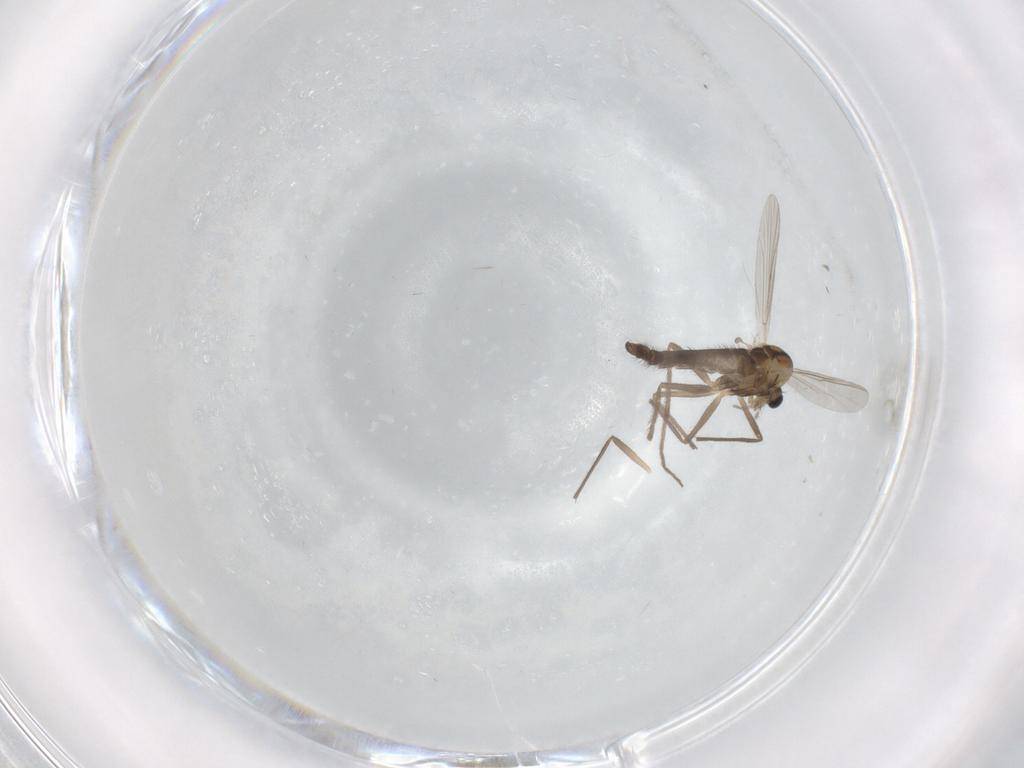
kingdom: Animalia
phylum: Arthropoda
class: Insecta
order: Diptera
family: Chironomidae
